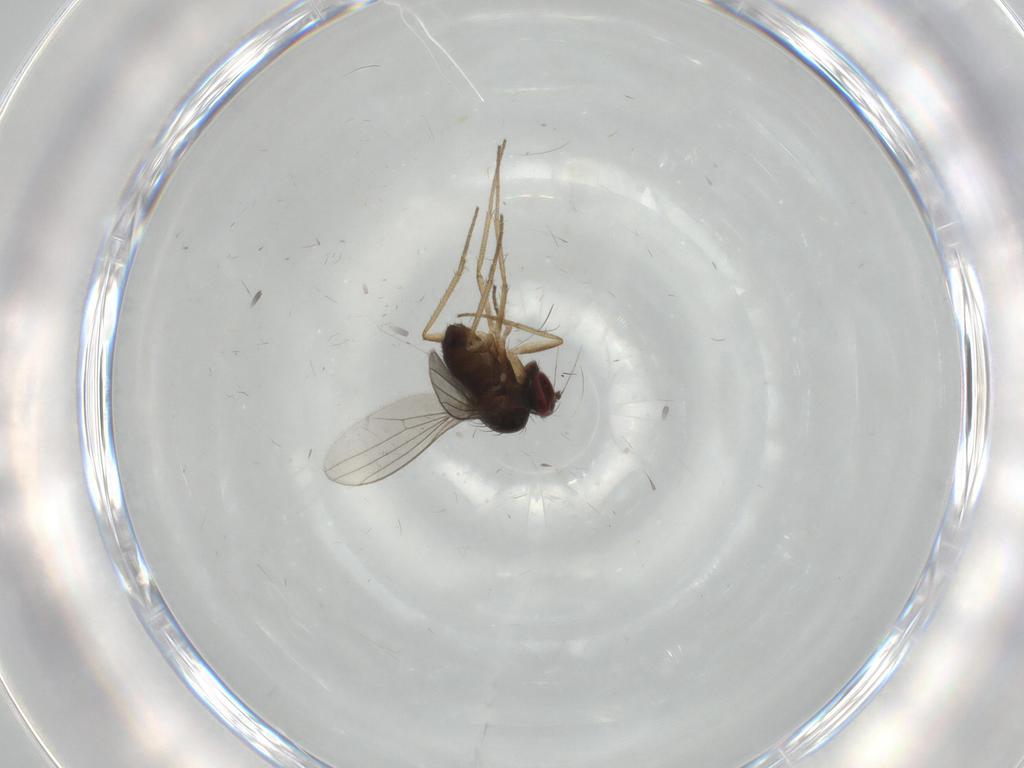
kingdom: Animalia
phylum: Arthropoda
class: Insecta
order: Diptera
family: Dolichopodidae
